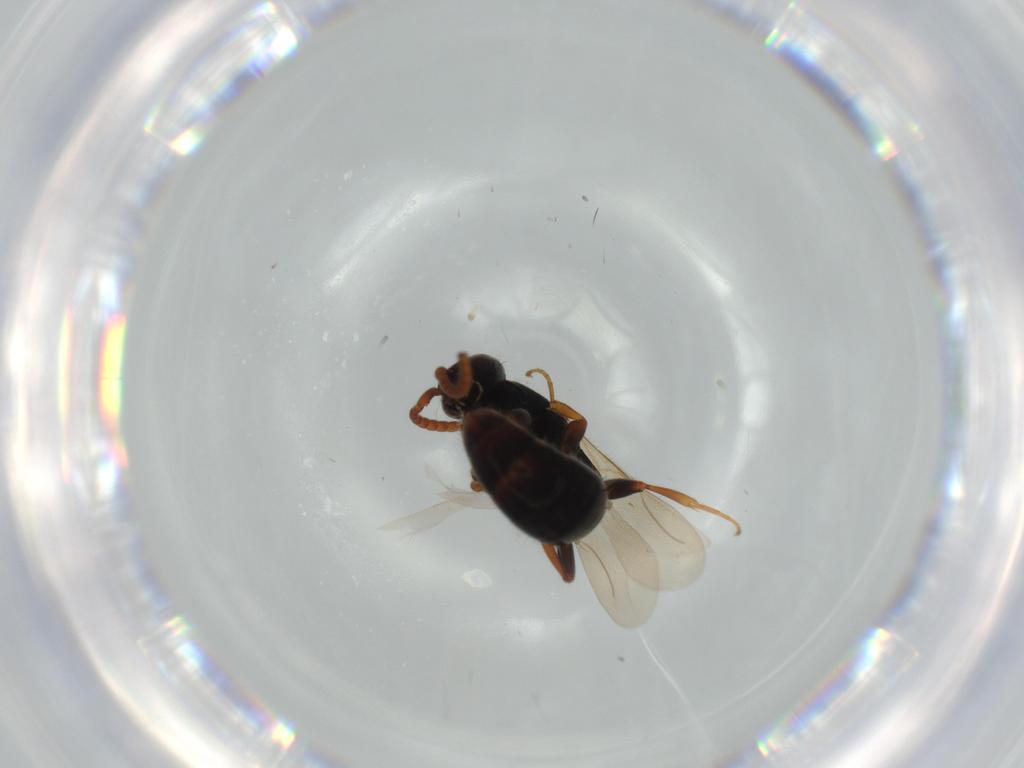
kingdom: Animalia
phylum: Arthropoda
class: Insecta
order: Hymenoptera
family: Bethylidae
